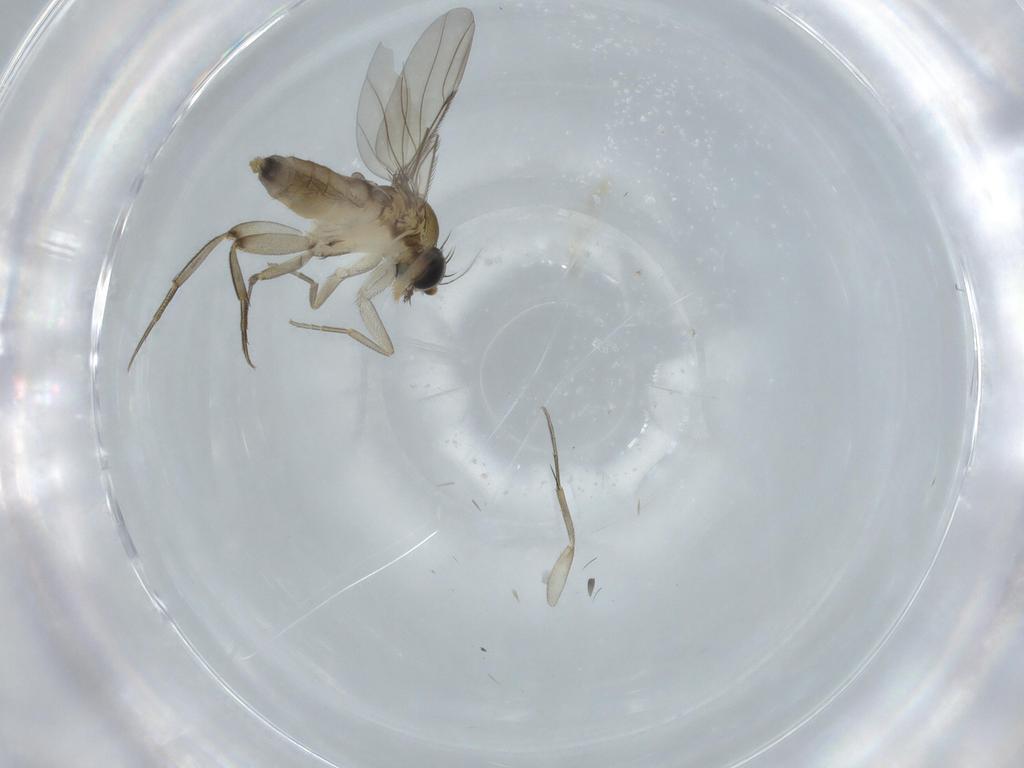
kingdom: Animalia
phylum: Arthropoda
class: Insecta
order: Diptera
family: Phoridae
